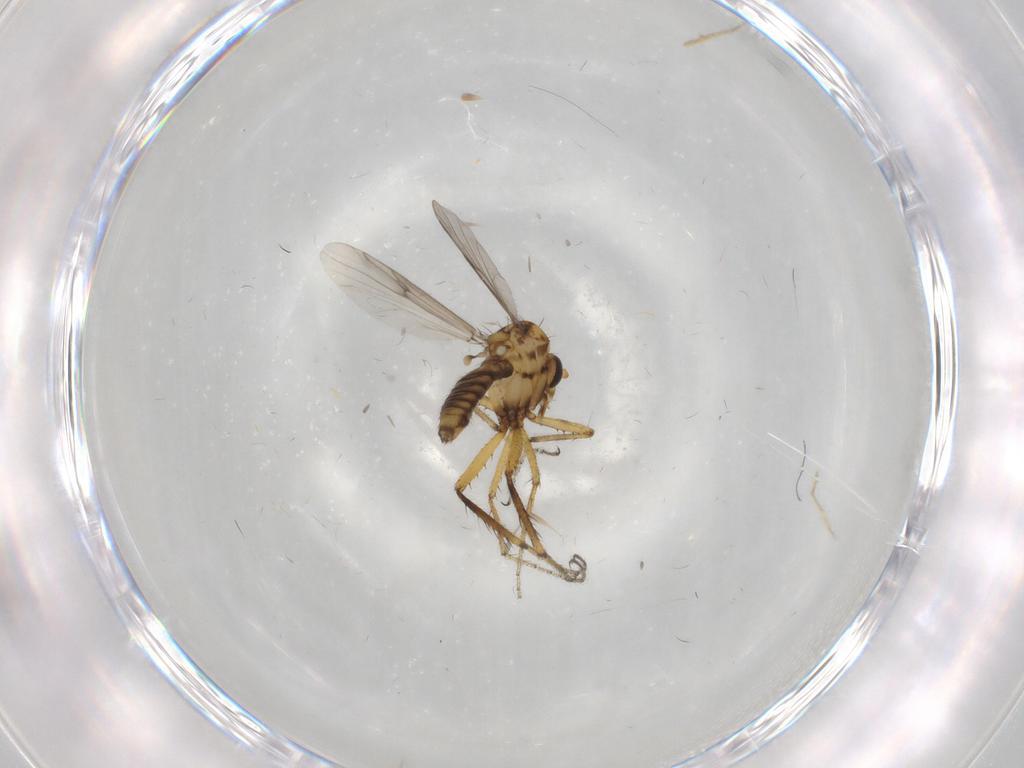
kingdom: Animalia
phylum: Arthropoda
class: Insecta
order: Diptera
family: Ceratopogonidae
